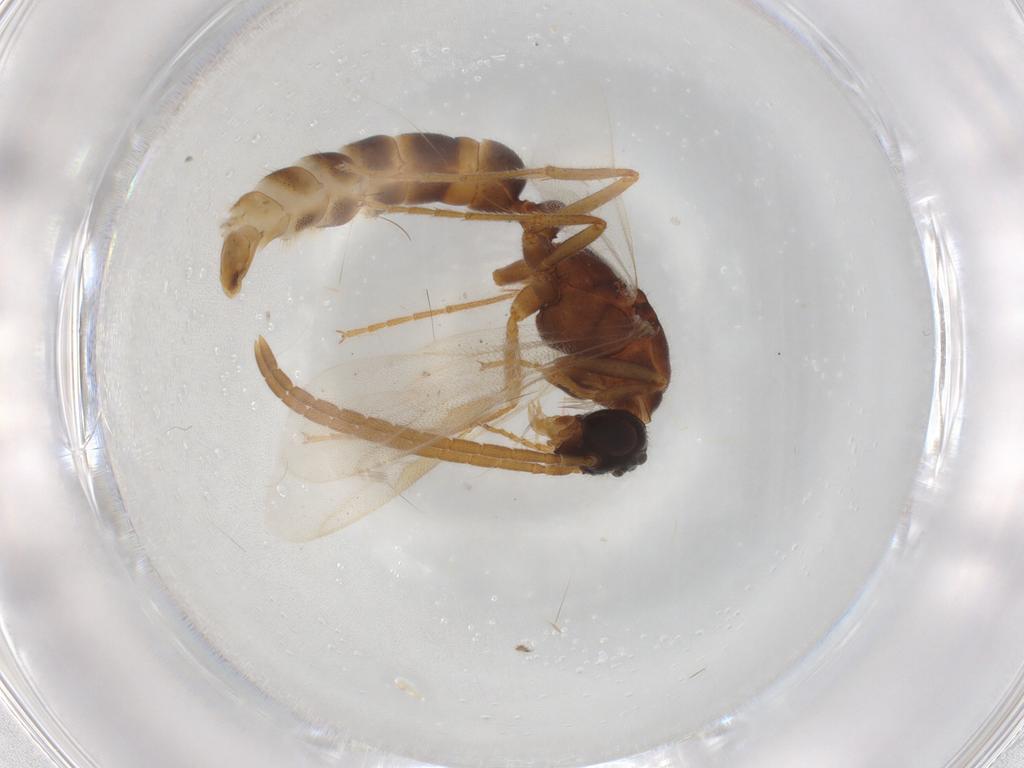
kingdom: Animalia
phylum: Arthropoda
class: Insecta
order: Hymenoptera
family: Formicidae
